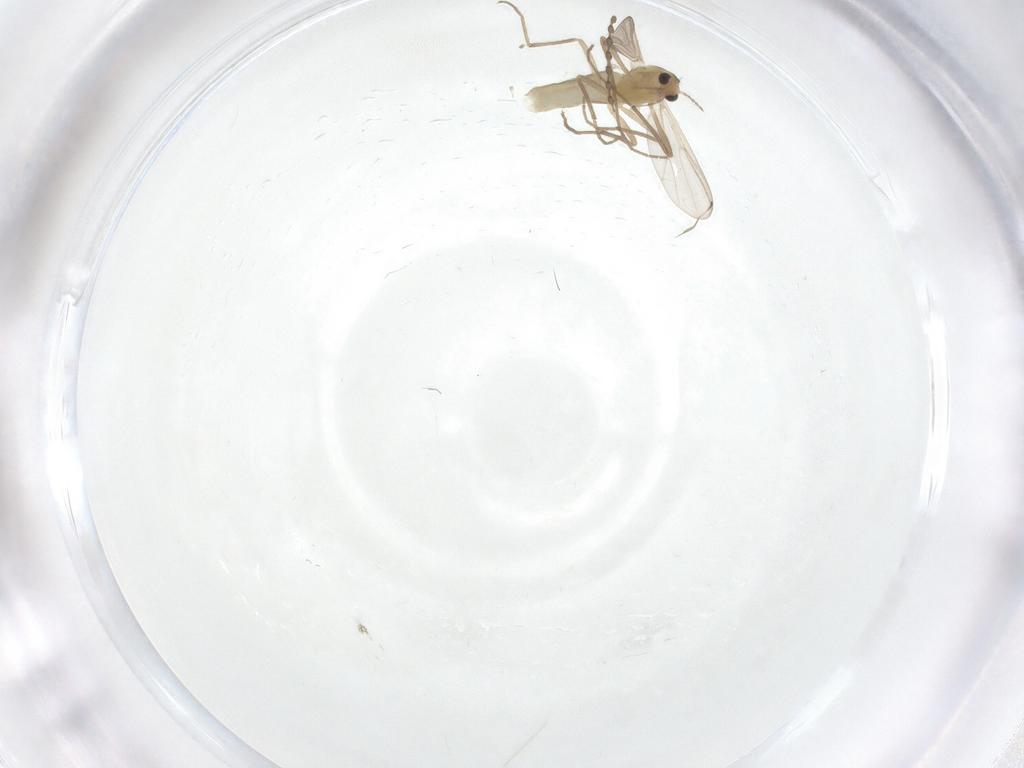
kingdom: Animalia
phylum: Arthropoda
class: Insecta
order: Diptera
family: Cecidomyiidae
